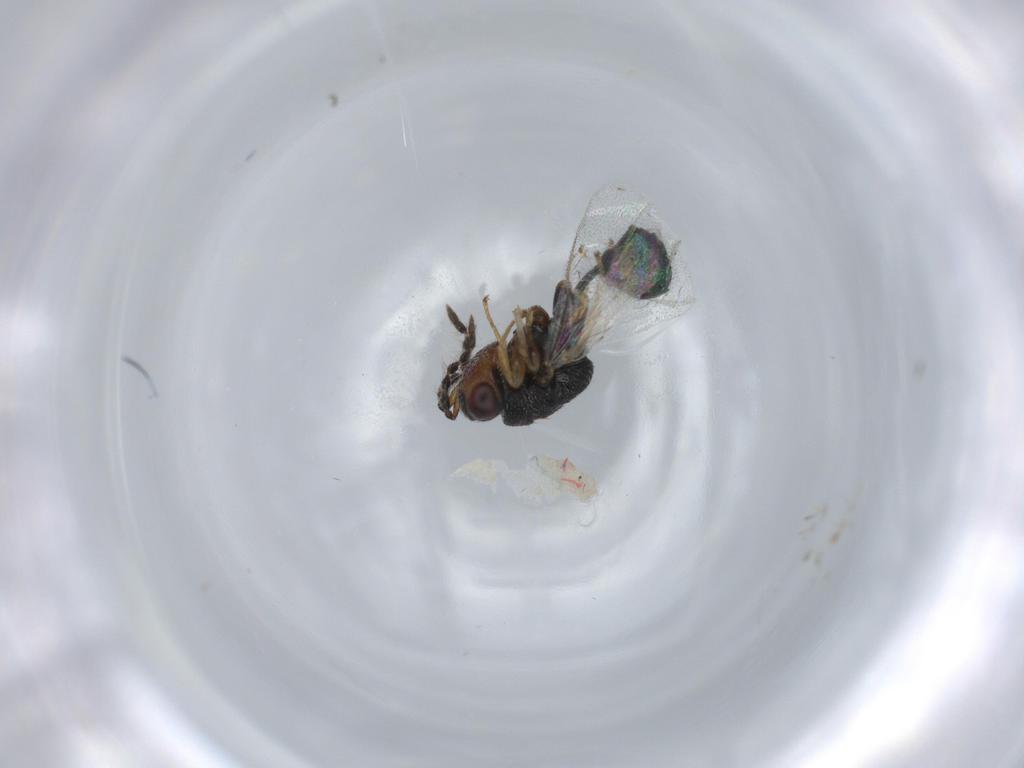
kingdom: Animalia
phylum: Arthropoda
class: Insecta
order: Hymenoptera
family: Eurytomidae
